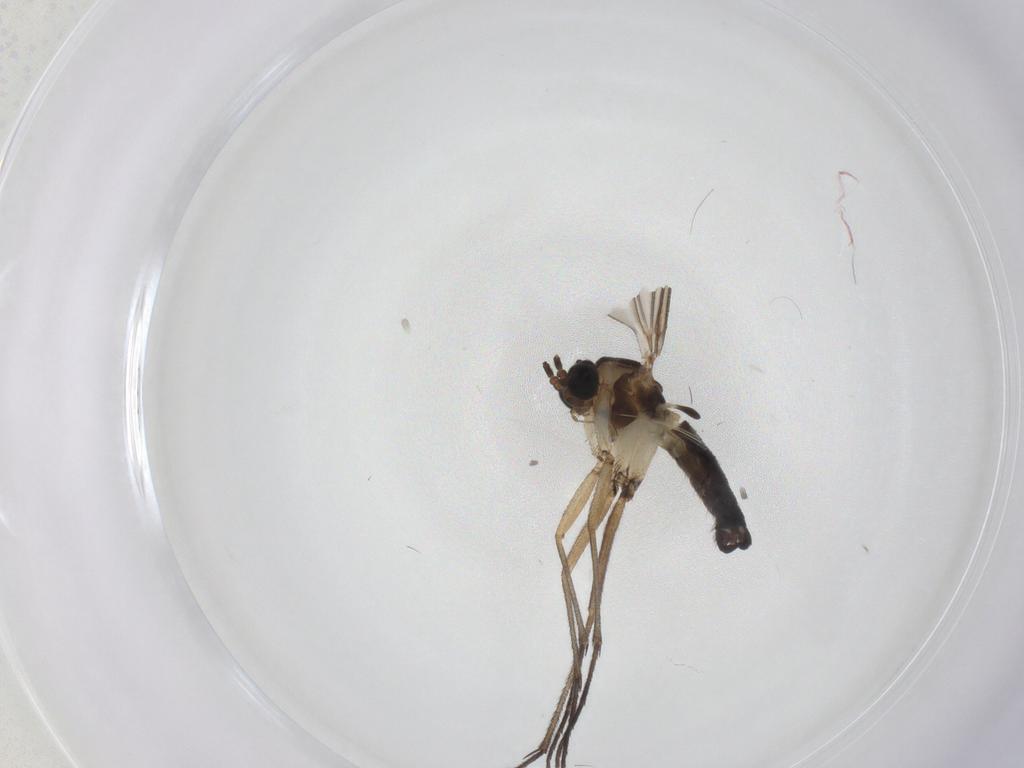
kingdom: Animalia
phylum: Arthropoda
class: Insecta
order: Diptera
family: Sciaridae
